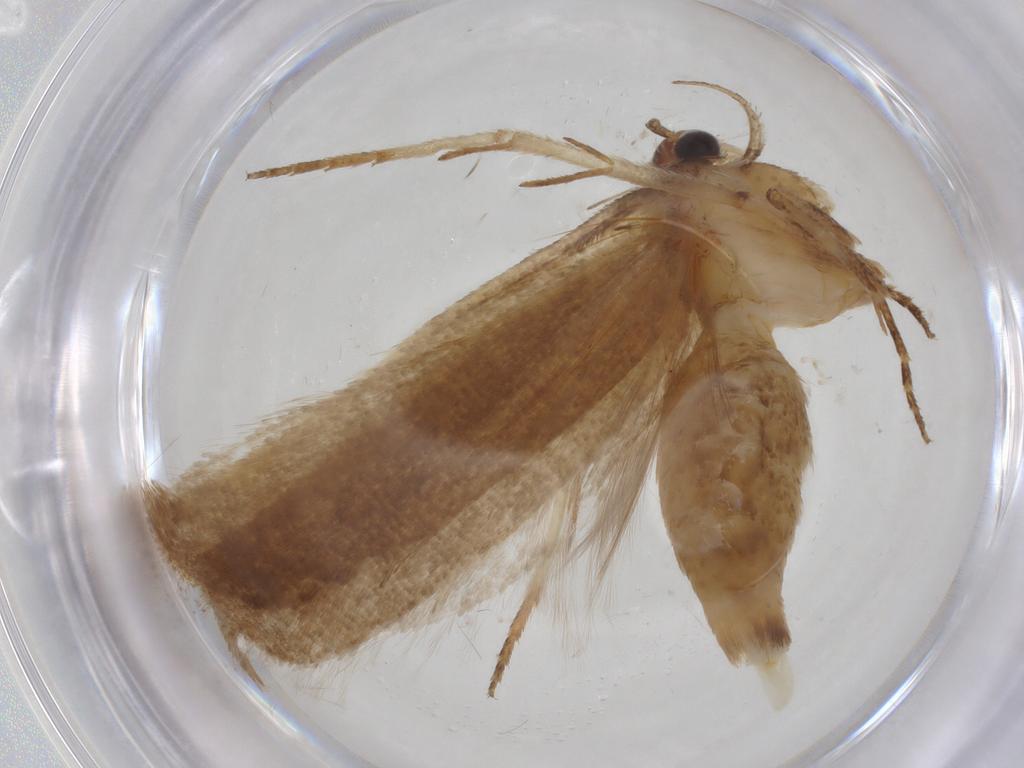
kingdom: Animalia
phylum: Arthropoda
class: Insecta
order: Lepidoptera
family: Gelechiidae
